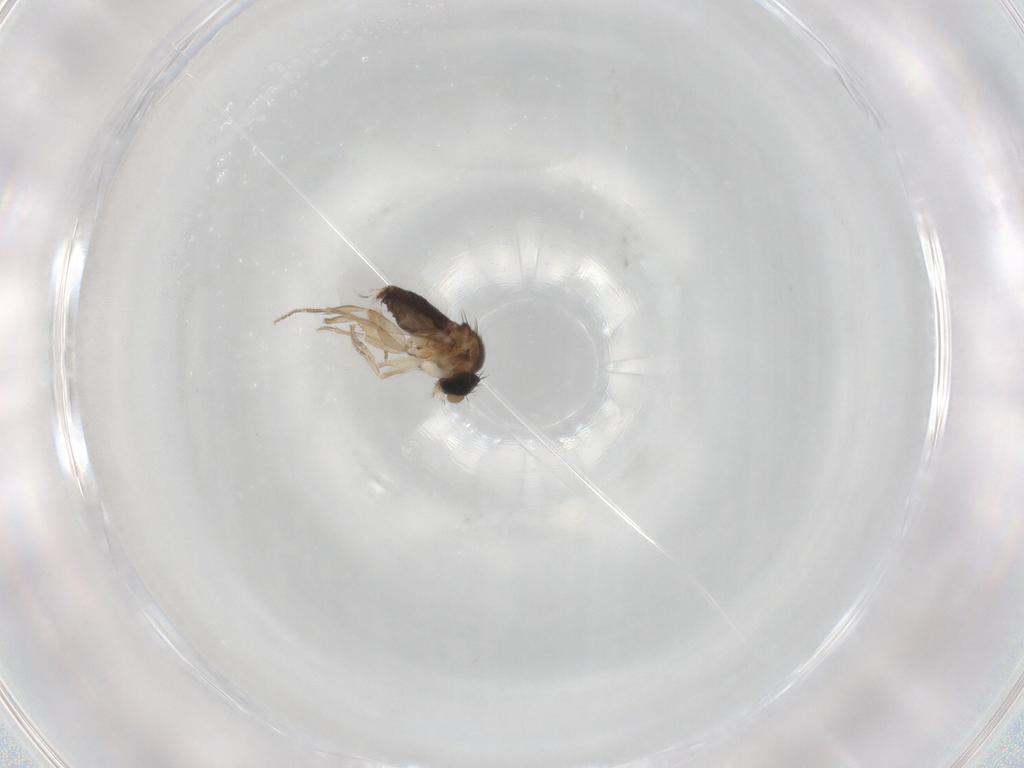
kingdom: Animalia
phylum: Arthropoda
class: Insecta
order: Diptera
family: Phoridae
